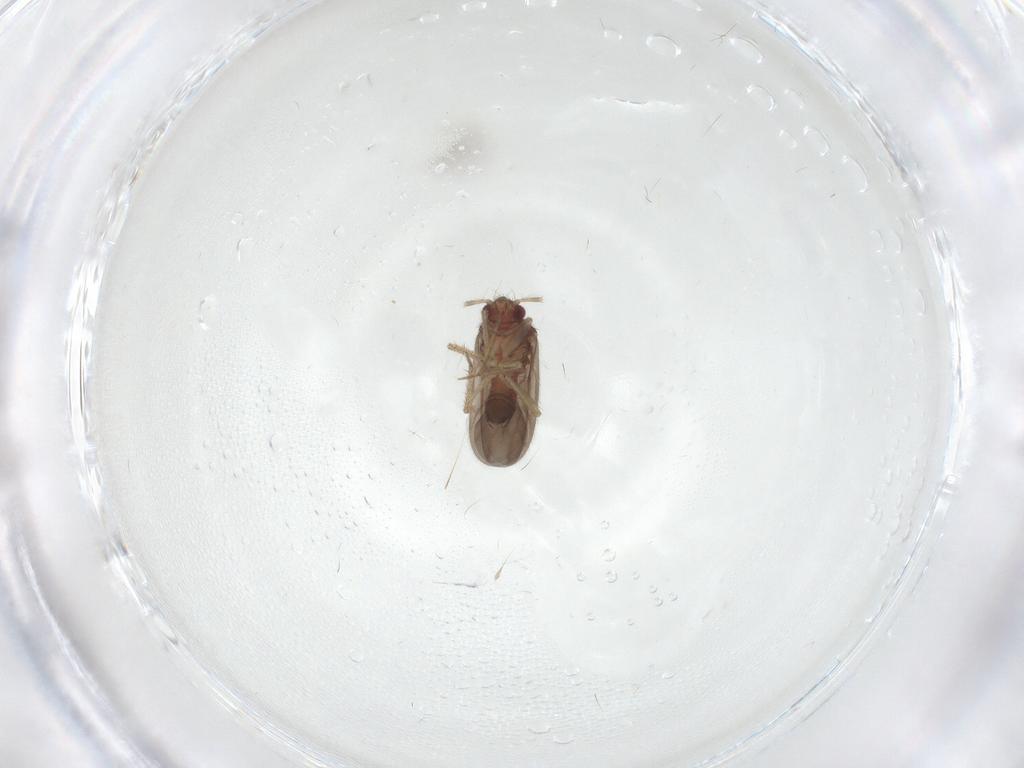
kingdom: Animalia
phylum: Arthropoda
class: Insecta
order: Hemiptera
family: Ceratocombidae
